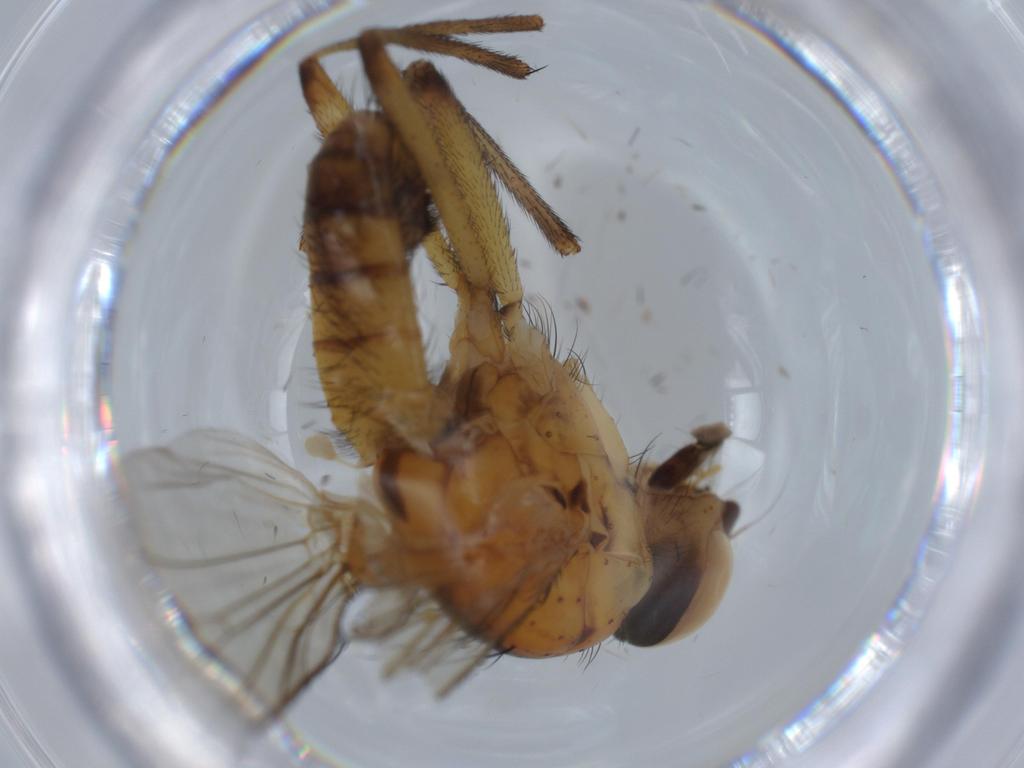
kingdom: Animalia
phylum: Arthropoda
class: Insecta
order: Diptera
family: Anthomyiidae
